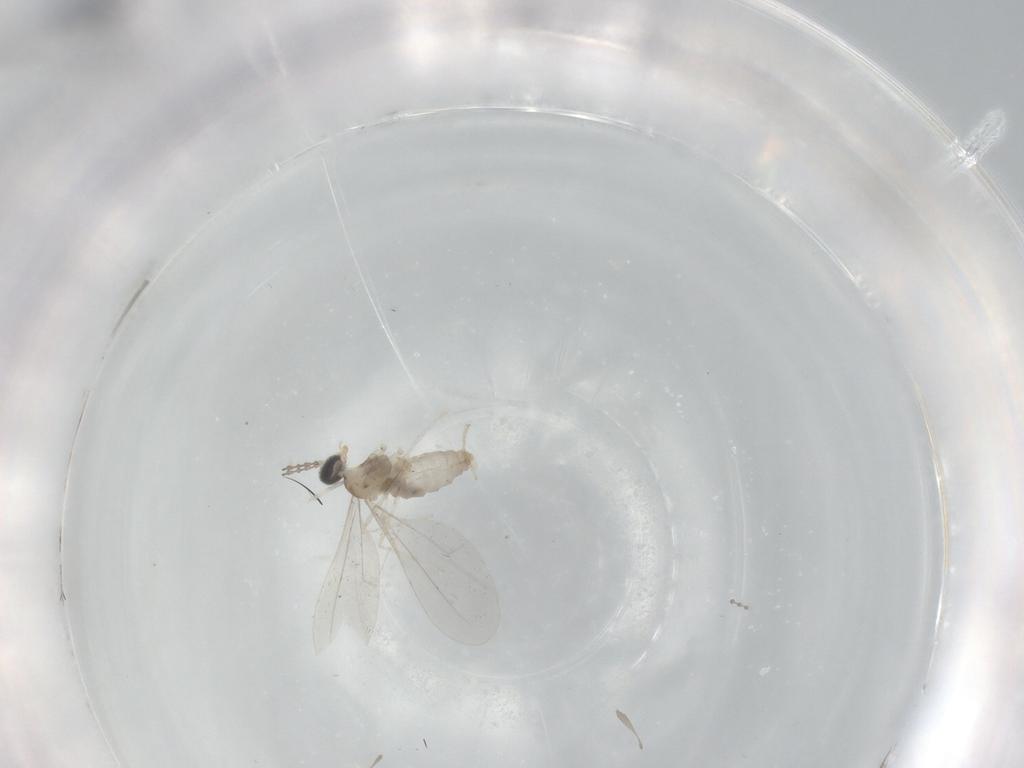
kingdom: Animalia
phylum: Arthropoda
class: Insecta
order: Diptera
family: Cecidomyiidae
